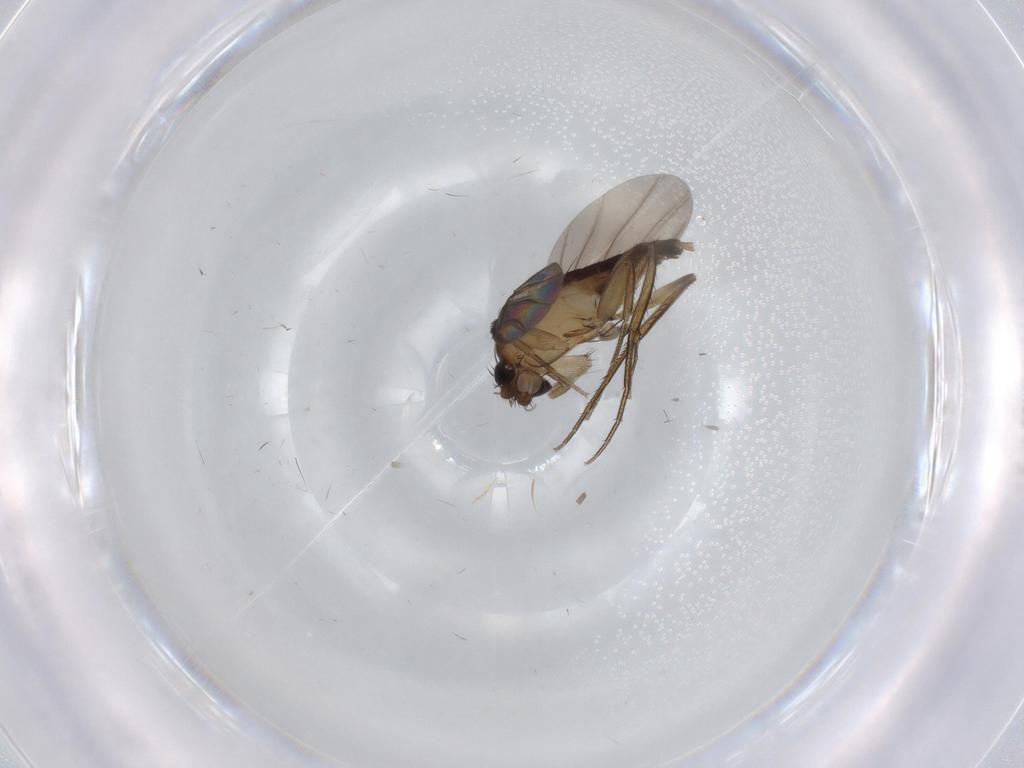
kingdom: Animalia
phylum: Arthropoda
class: Insecta
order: Diptera
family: Phoridae
